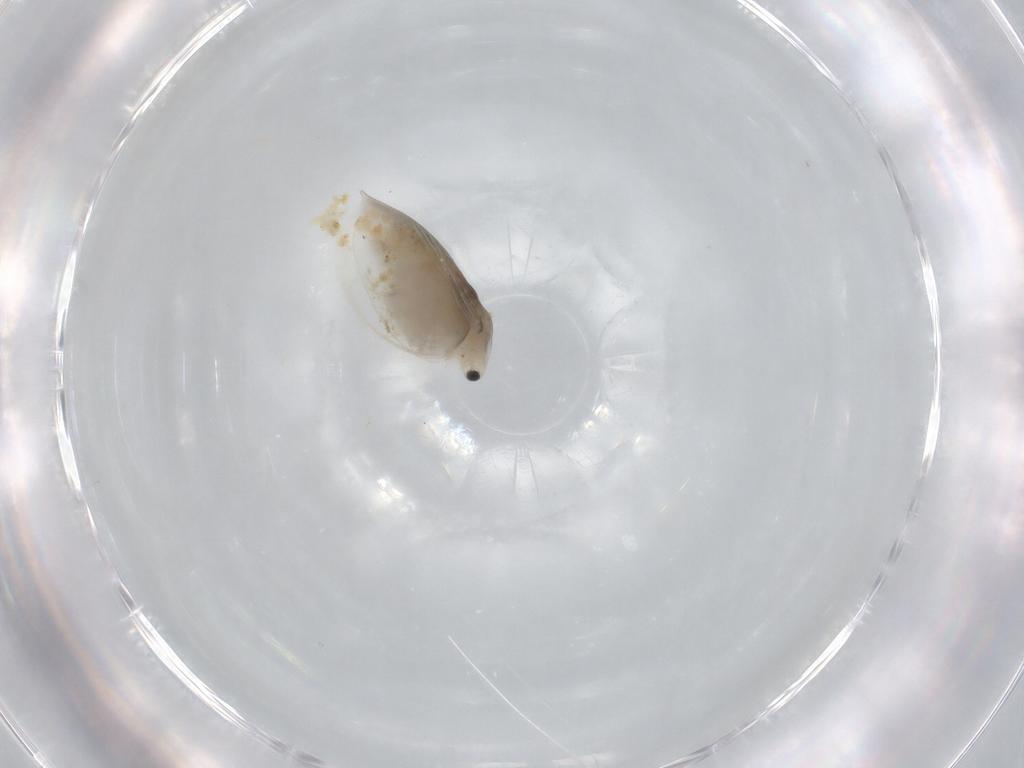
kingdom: Animalia
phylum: Arthropoda
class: Branchiopoda
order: Diplostraca
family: Daphniidae
